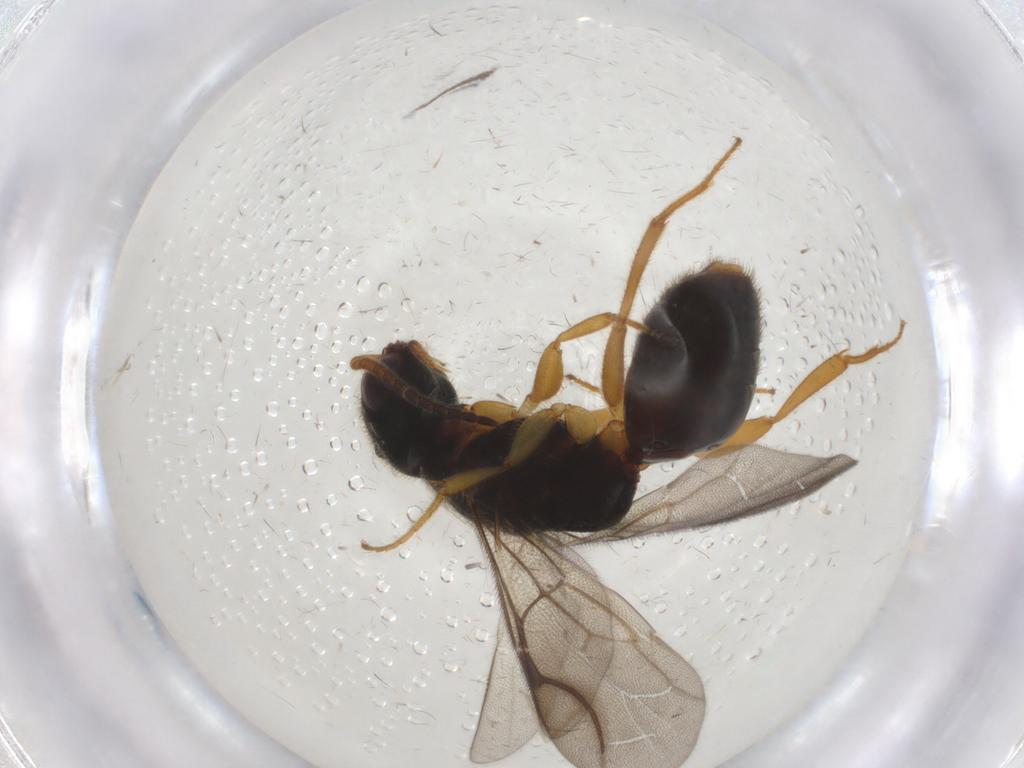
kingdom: Animalia
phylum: Arthropoda
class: Insecta
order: Hymenoptera
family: Bethylidae
